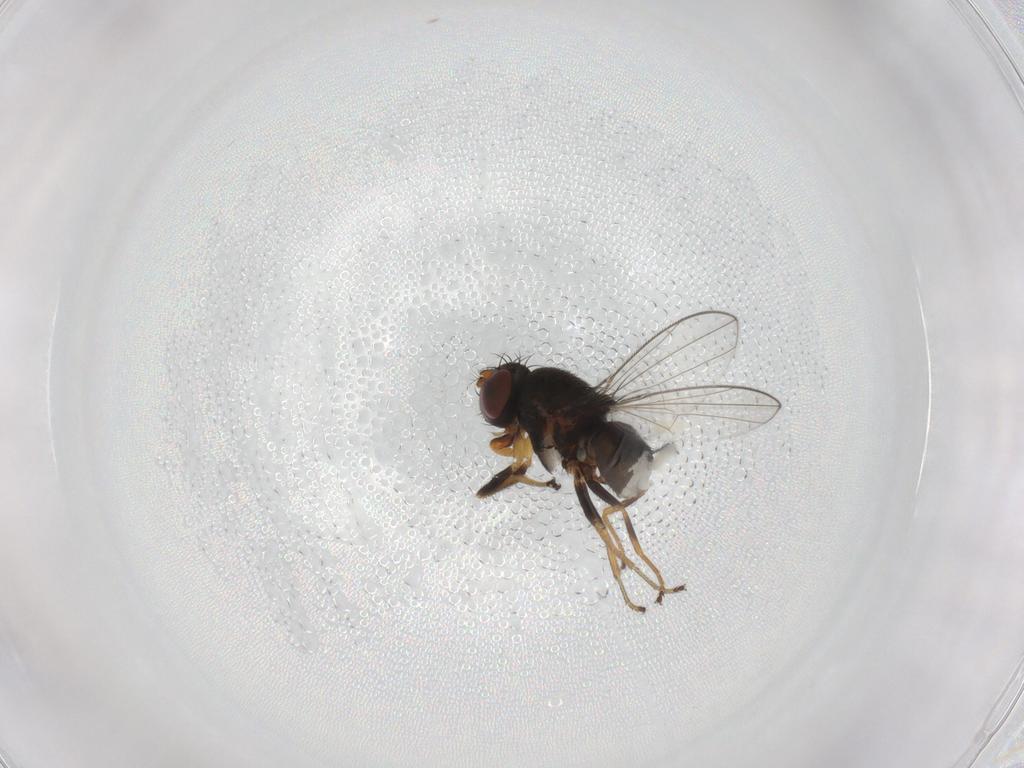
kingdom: Animalia
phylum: Arthropoda
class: Insecta
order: Diptera
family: Ephydridae
